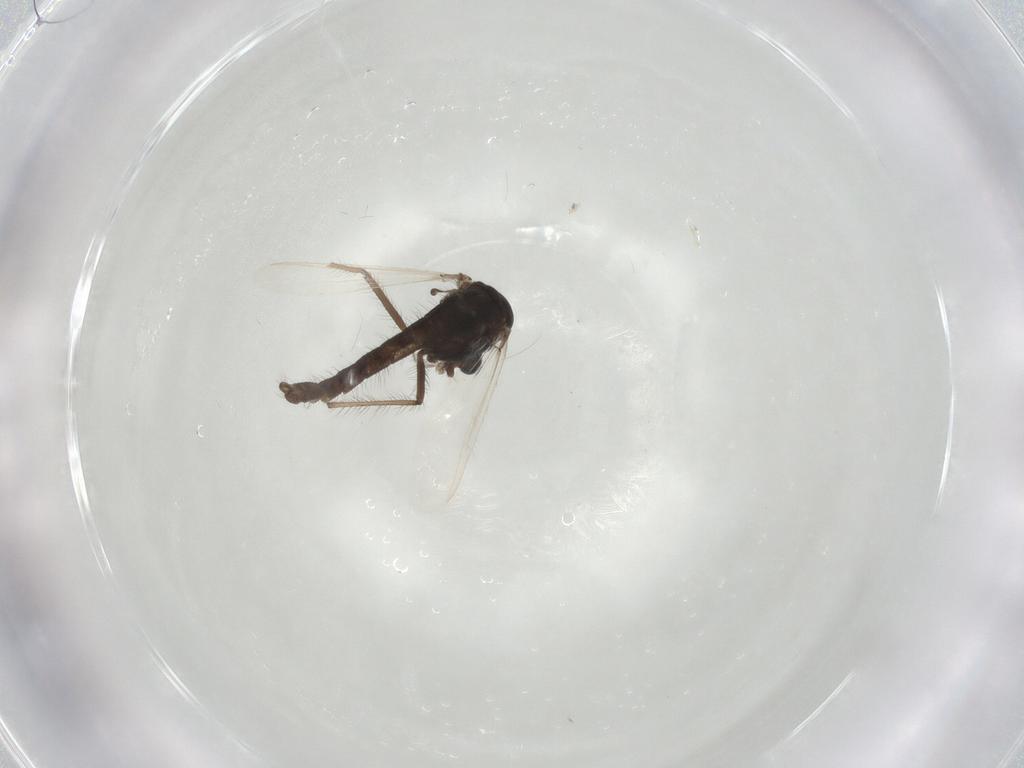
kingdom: Animalia
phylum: Arthropoda
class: Insecta
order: Diptera
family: Chironomidae
